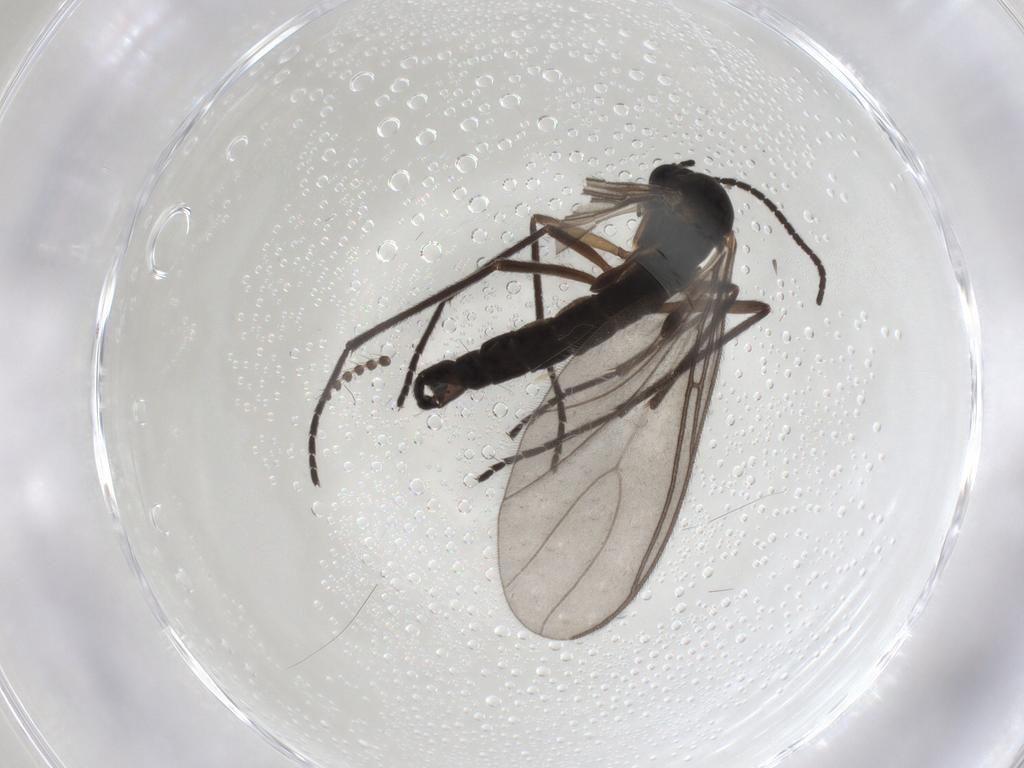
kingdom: Animalia
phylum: Arthropoda
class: Insecta
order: Diptera
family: Sciaridae
